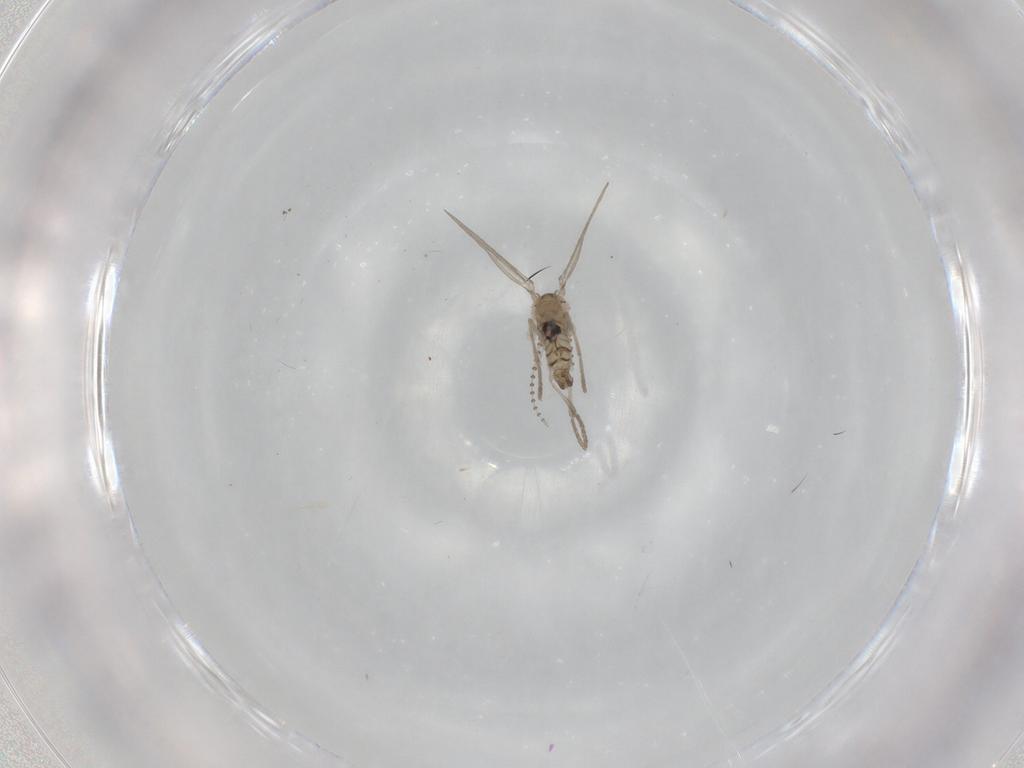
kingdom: Animalia
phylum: Arthropoda
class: Insecta
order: Diptera
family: Psychodidae
